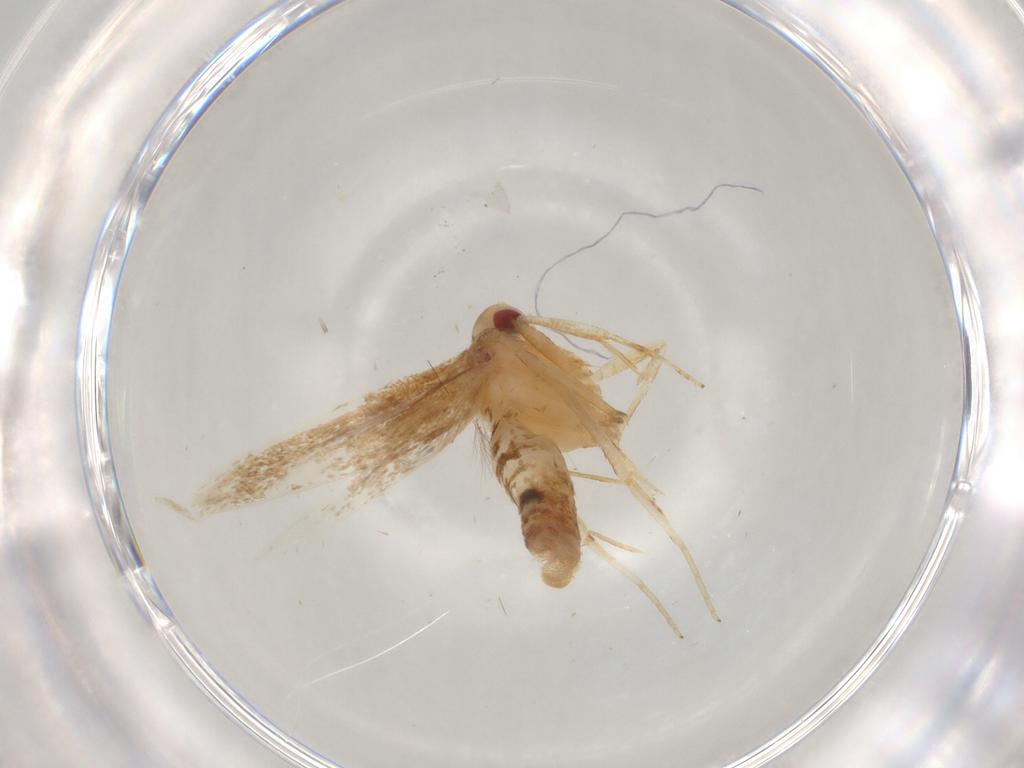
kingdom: Animalia
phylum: Arthropoda
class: Insecta
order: Lepidoptera
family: Cosmopterigidae
